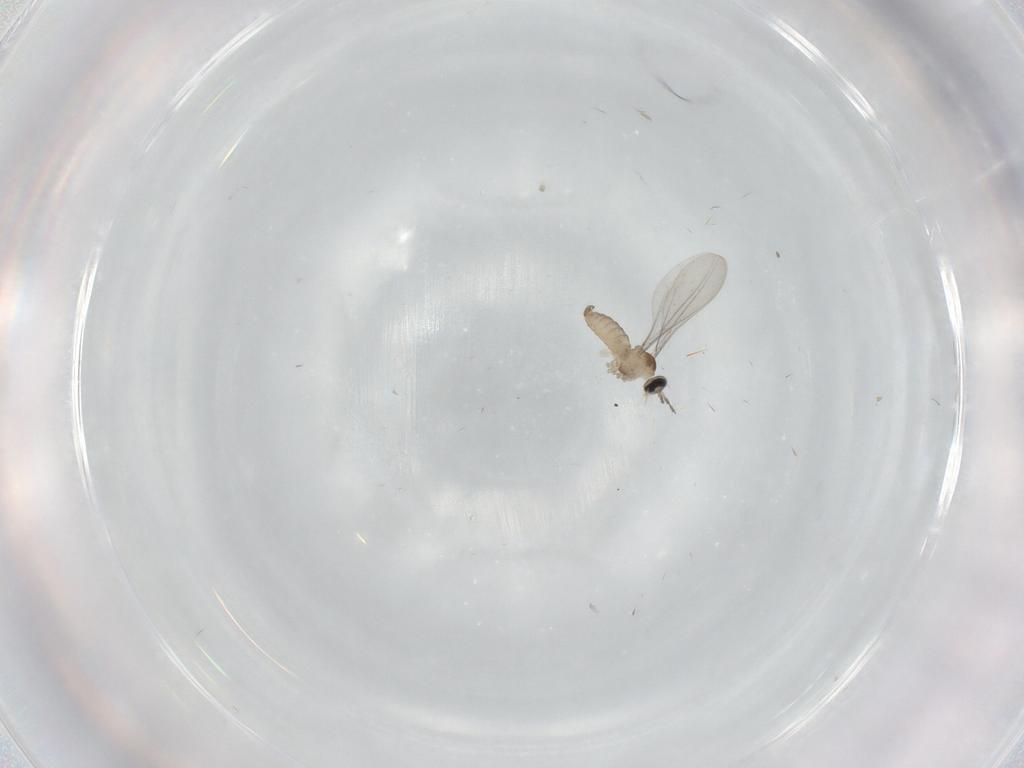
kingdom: Animalia
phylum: Arthropoda
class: Insecta
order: Diptera
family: Cecidomyiidae
